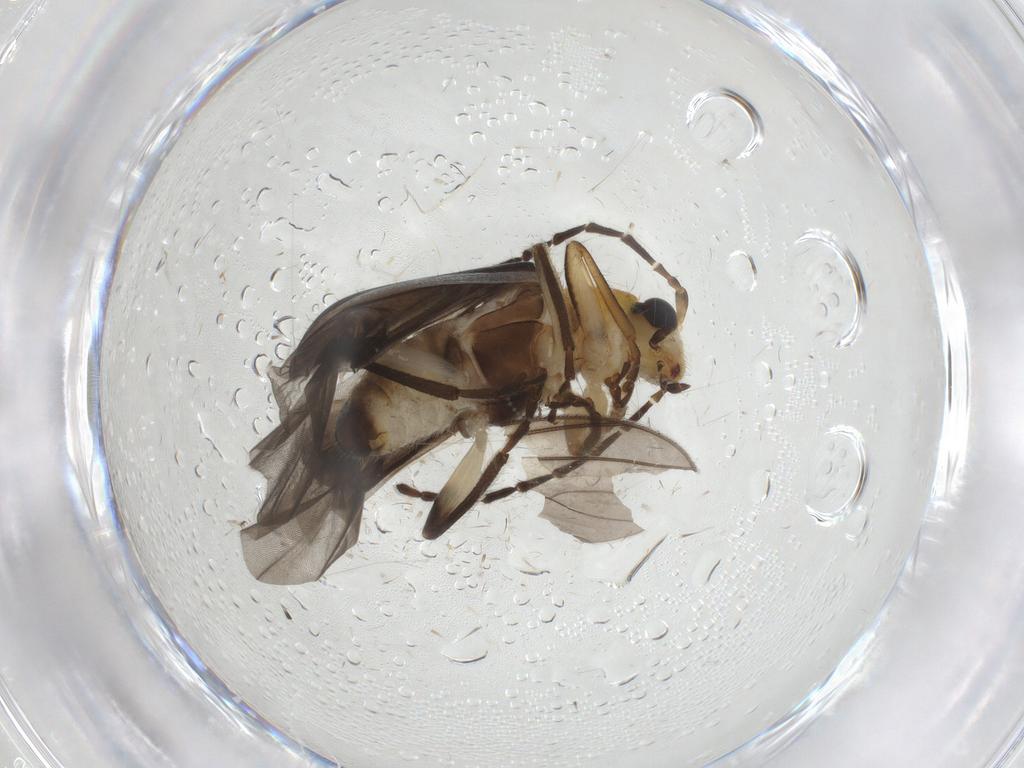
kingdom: Animalia
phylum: Arthropoda
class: Insecta
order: Coleoptera
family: Chrysomelidae
